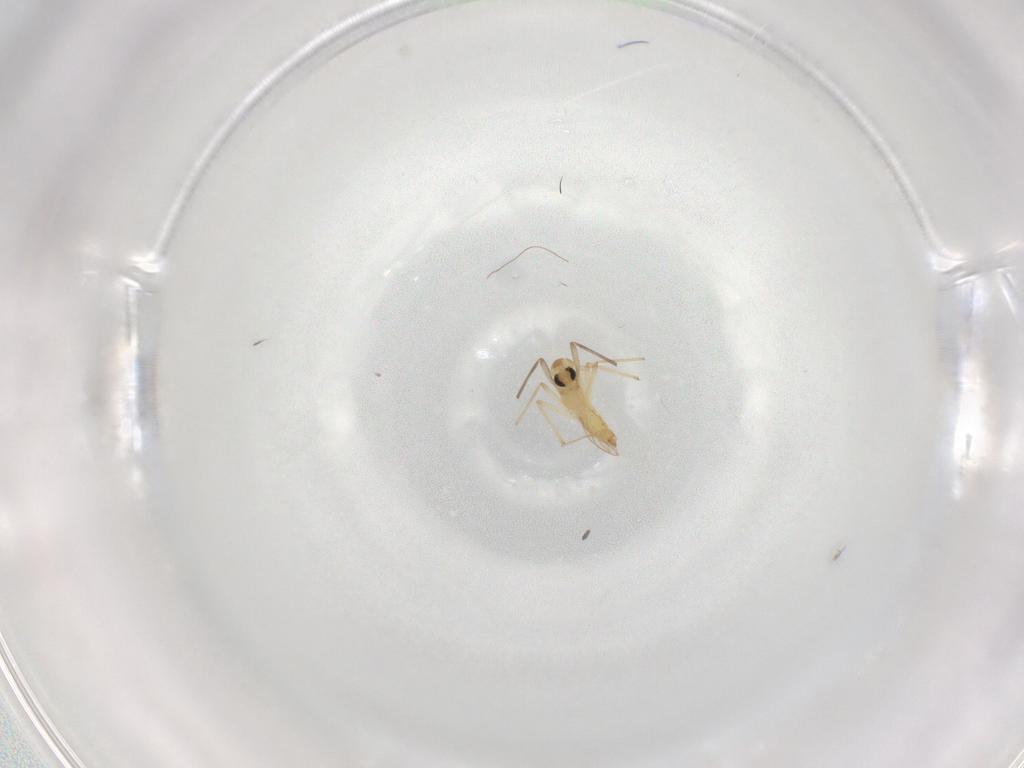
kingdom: Animalia
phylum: Arthropoda
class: Insecta
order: Diptera
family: Chironomidae
